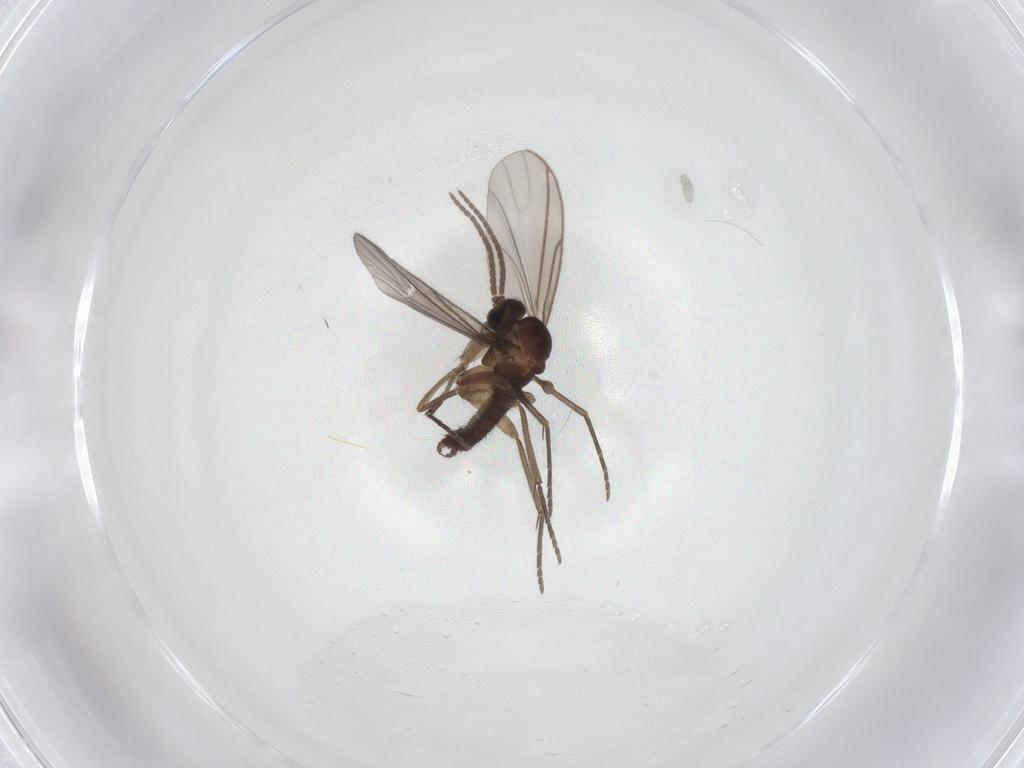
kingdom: Animalia
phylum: Arthropoda
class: Insecta
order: Diptera
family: Sciaridae
